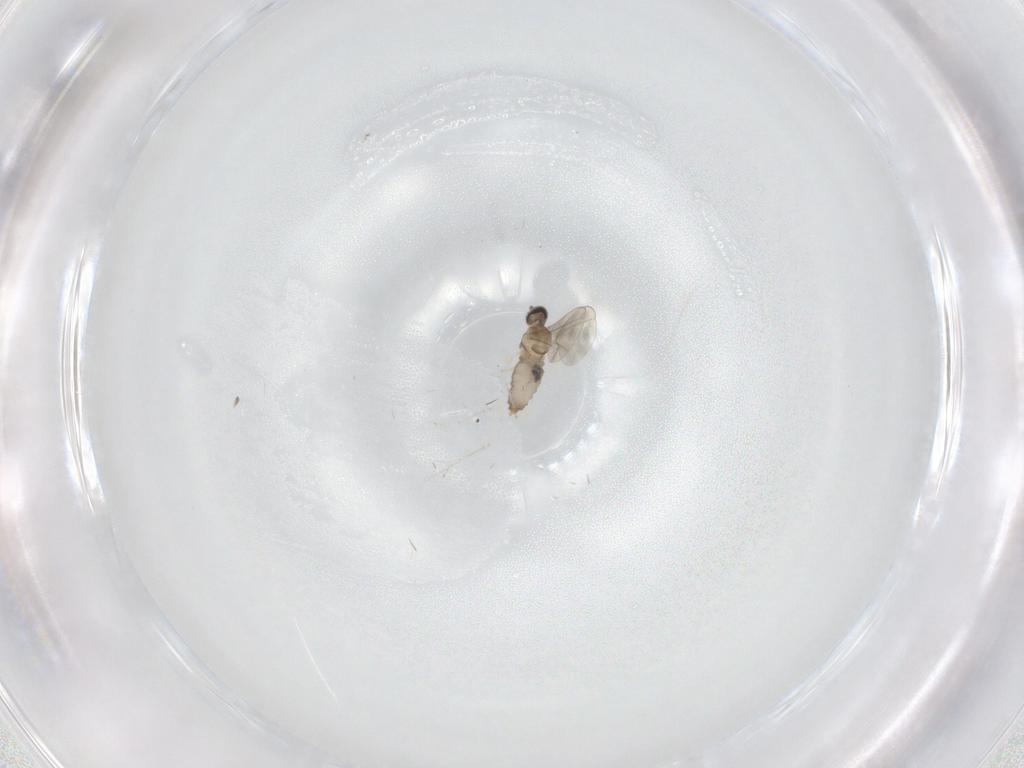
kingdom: Animalia
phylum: Arthropoda
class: Insecta
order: Diptera
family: Cecidomyiidae
